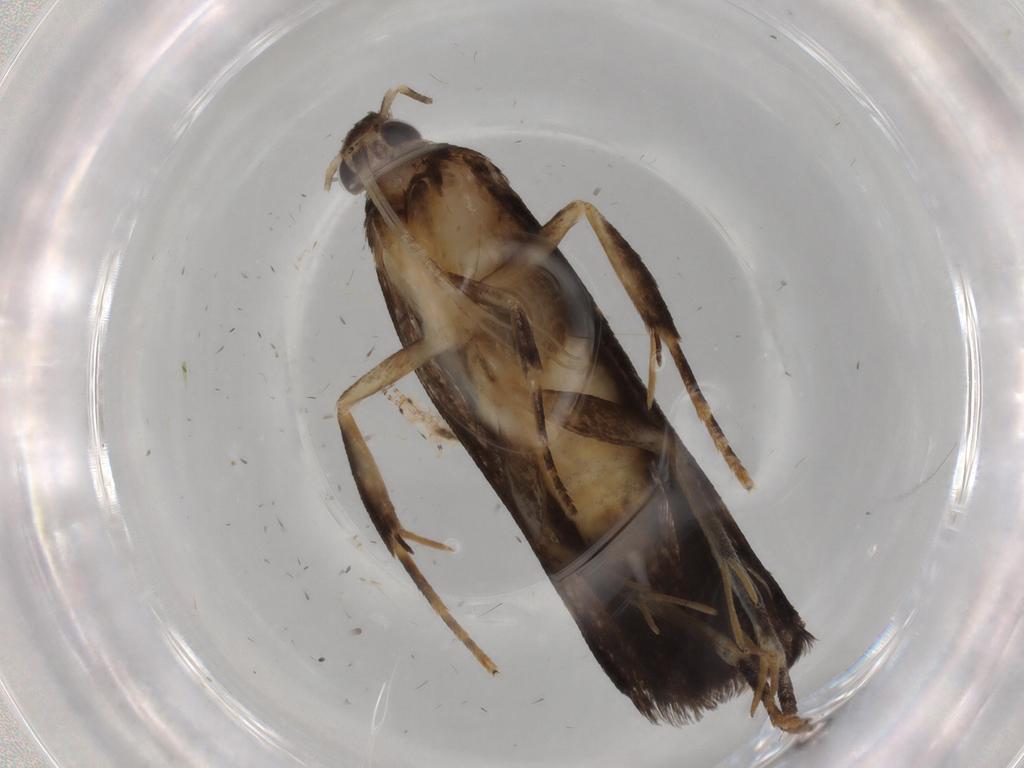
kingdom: Animalia
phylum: Arthropoda
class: Insecta
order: Lepidoptera
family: Gelechiidae
